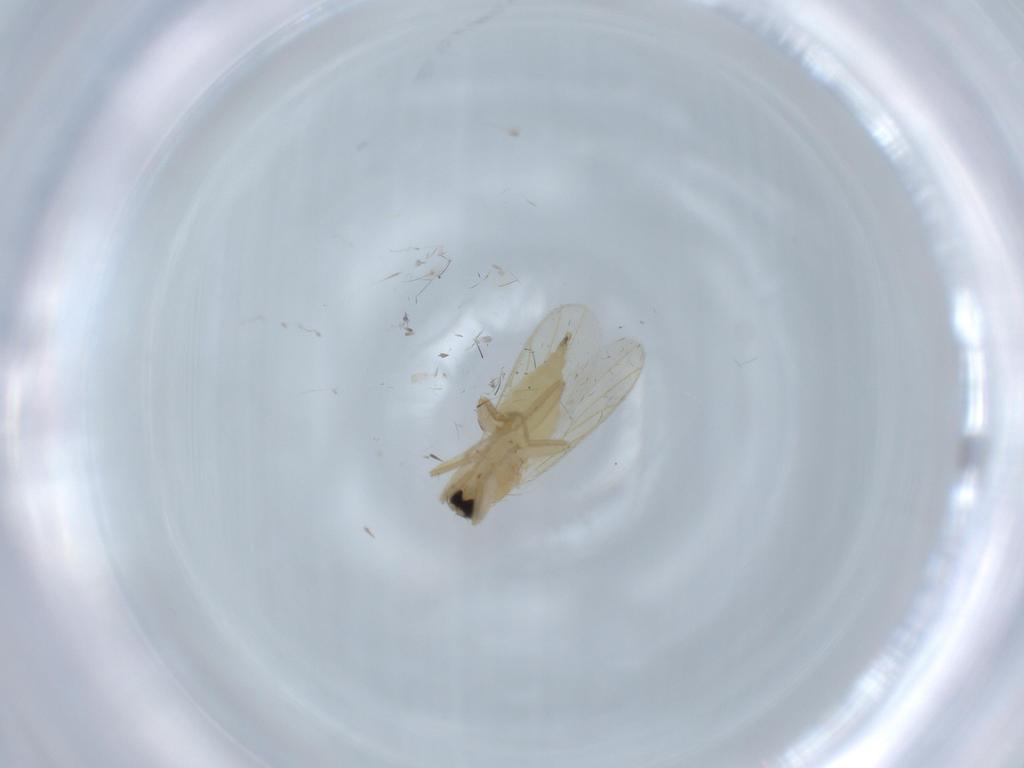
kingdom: Animalia
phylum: Arthropoda
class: Insecta
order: Diptera
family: Hybotidae
